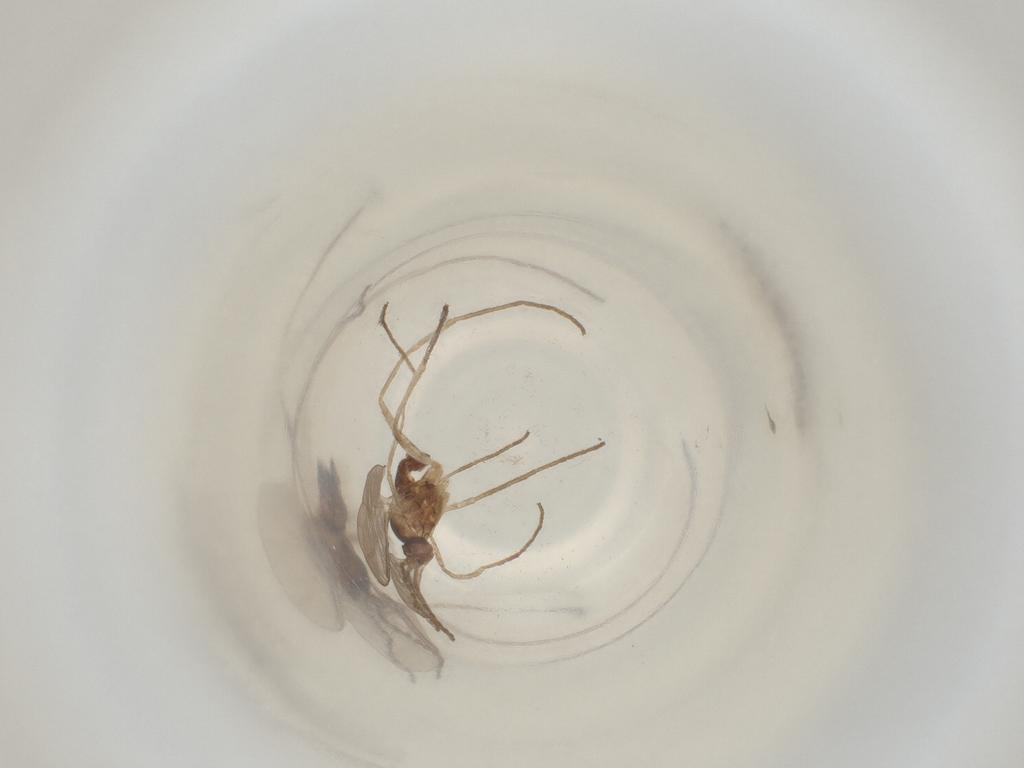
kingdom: Animalia
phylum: Arthropoda
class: Insecta
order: Diptera
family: Cecidomyiidae
